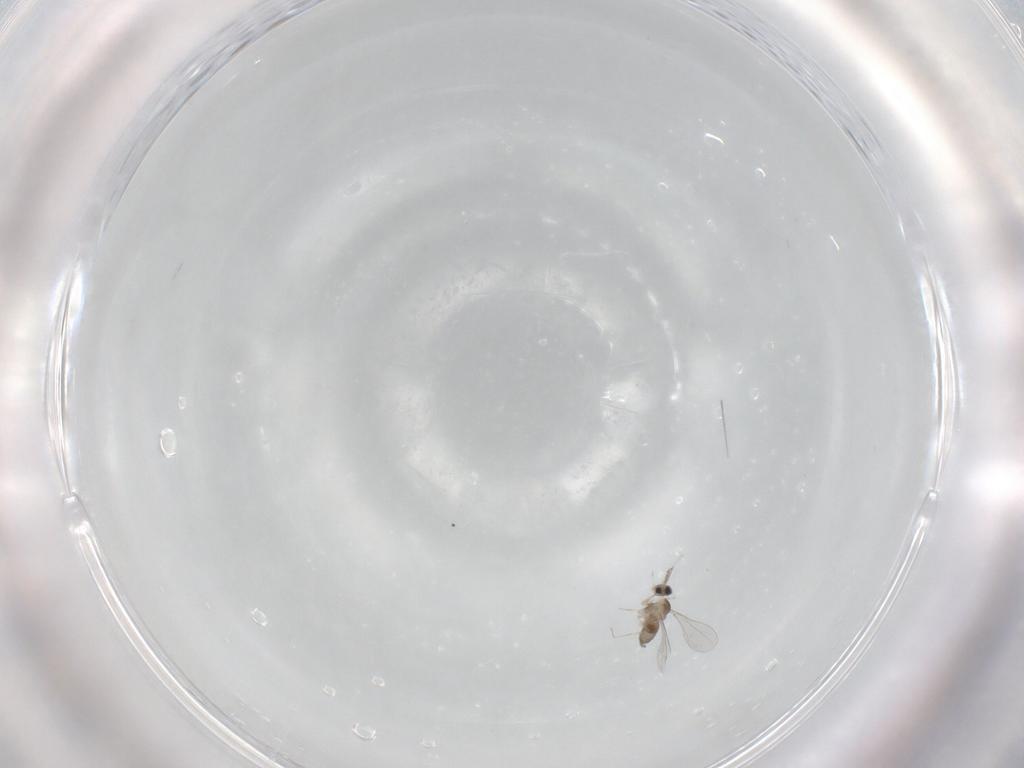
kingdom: Animalia
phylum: Arthropoda
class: Insecta
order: Diptera
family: Cecidomyiidae
